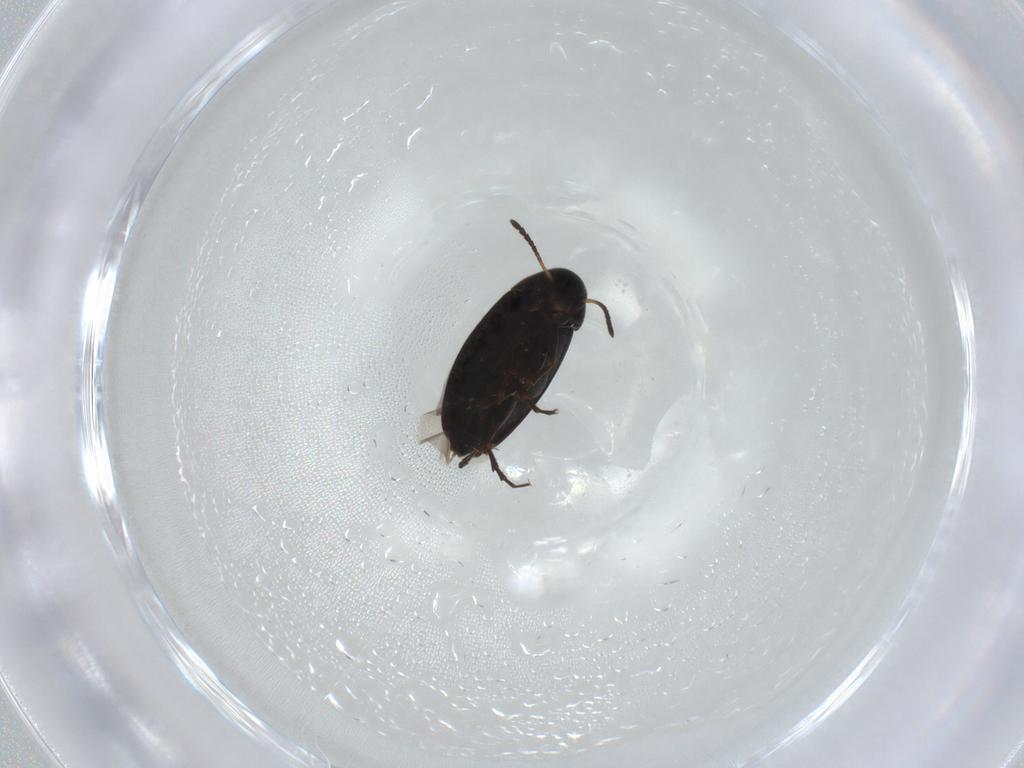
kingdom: Animalia
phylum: Arthropoda
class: Insecta
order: Coleoptera
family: Scraptiidae
